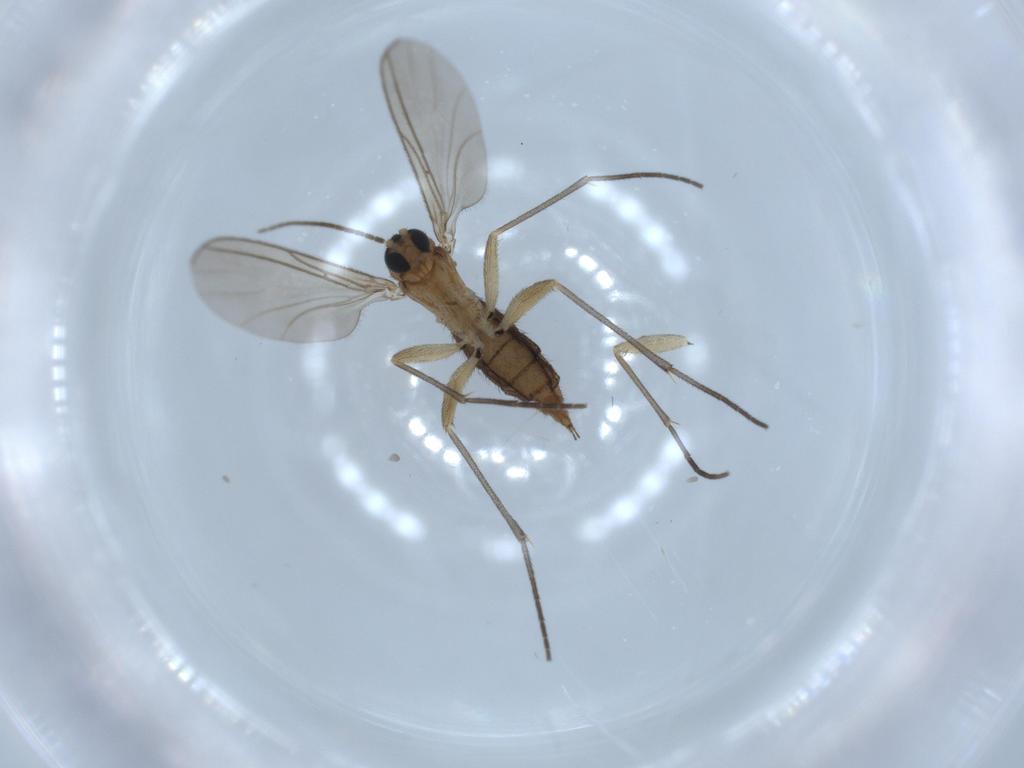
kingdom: Animalia
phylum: Arthropoda
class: Insecta
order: Diptera
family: Sciaridae
